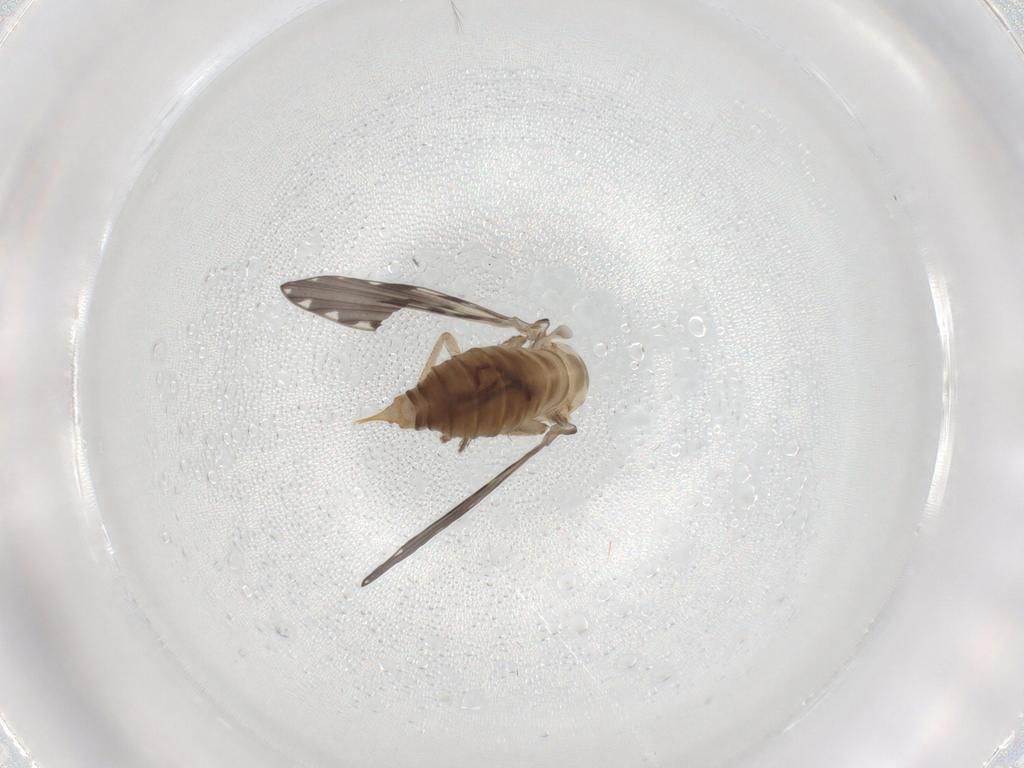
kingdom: Animalia
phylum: Arthropoda
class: Insecta
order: Diptera
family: Psychodidae
